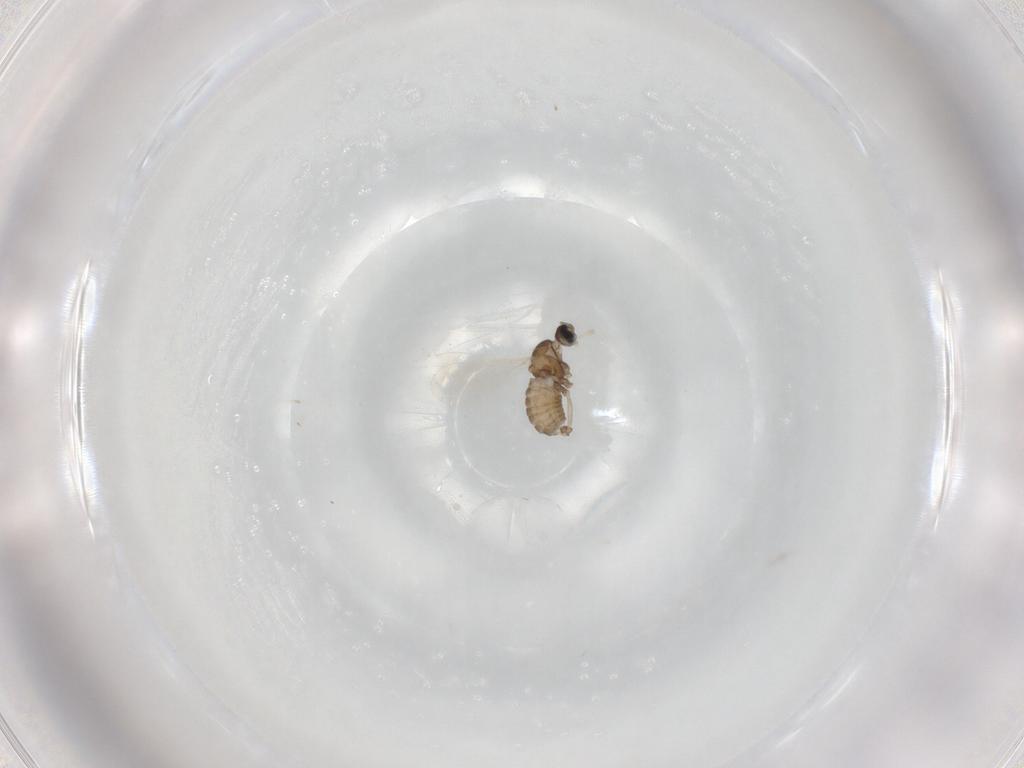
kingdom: Animalia
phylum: Arthropoda
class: Insecta
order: Diptera
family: Cecidomyiidae
